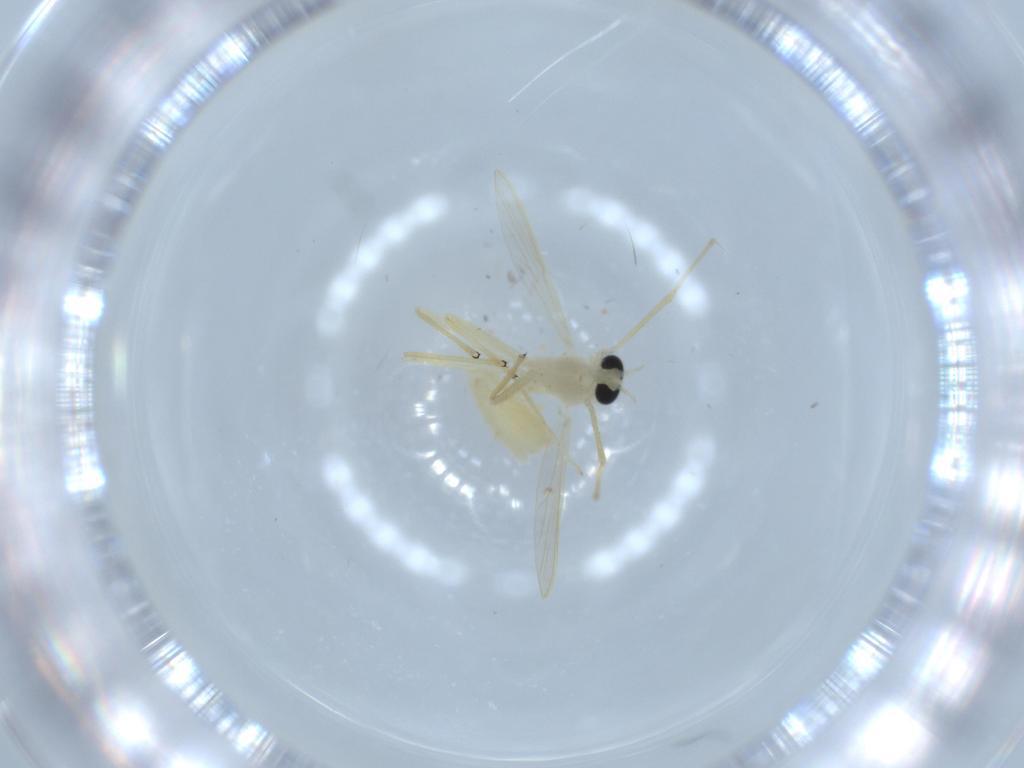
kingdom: Animalia
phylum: Arthropoda
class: Insecta
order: Diptera
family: Chironomidae
